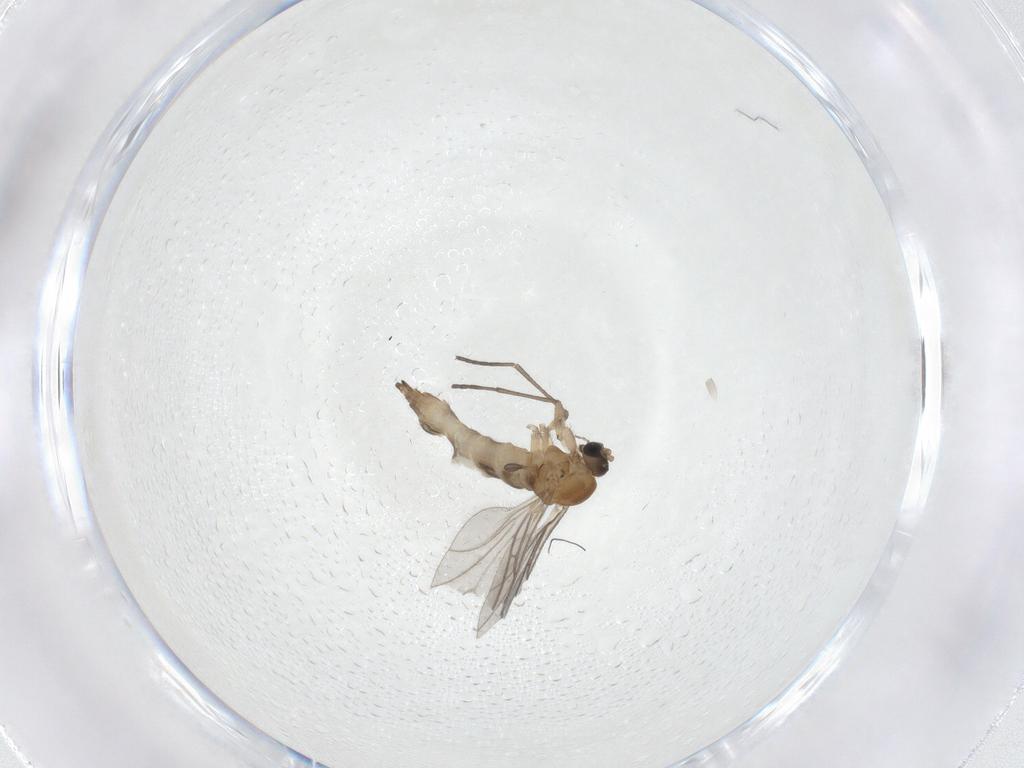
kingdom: Animalia
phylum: Arthropoda
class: Insecta
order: Diptera
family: Sciaridae
